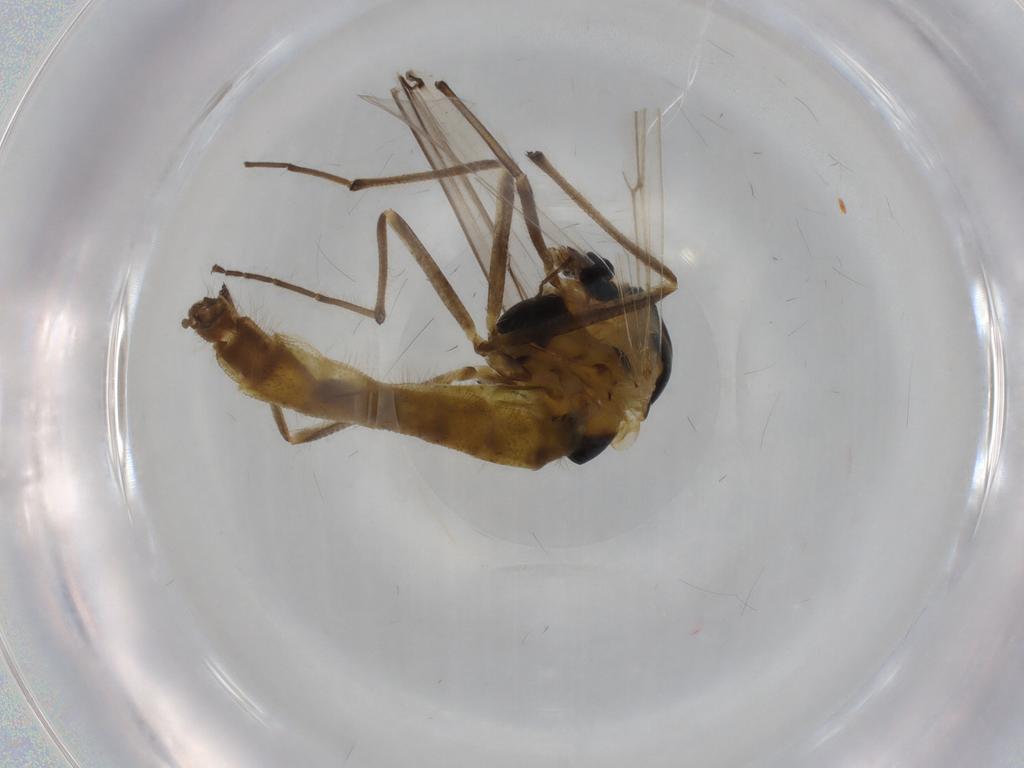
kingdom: Animalia
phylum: Arthropoda
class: Insecta
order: Diptera
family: Chironomidae
